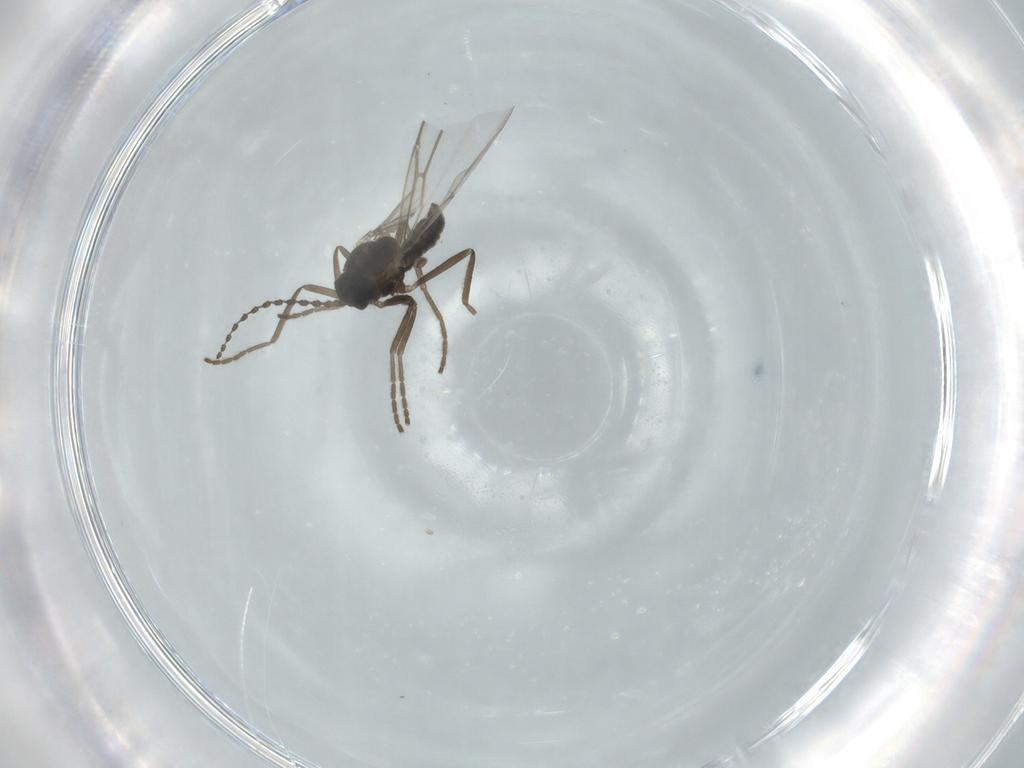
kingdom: Animalia
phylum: Arthropoda
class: Insecta
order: Diptera
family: Cecidomyiidae
